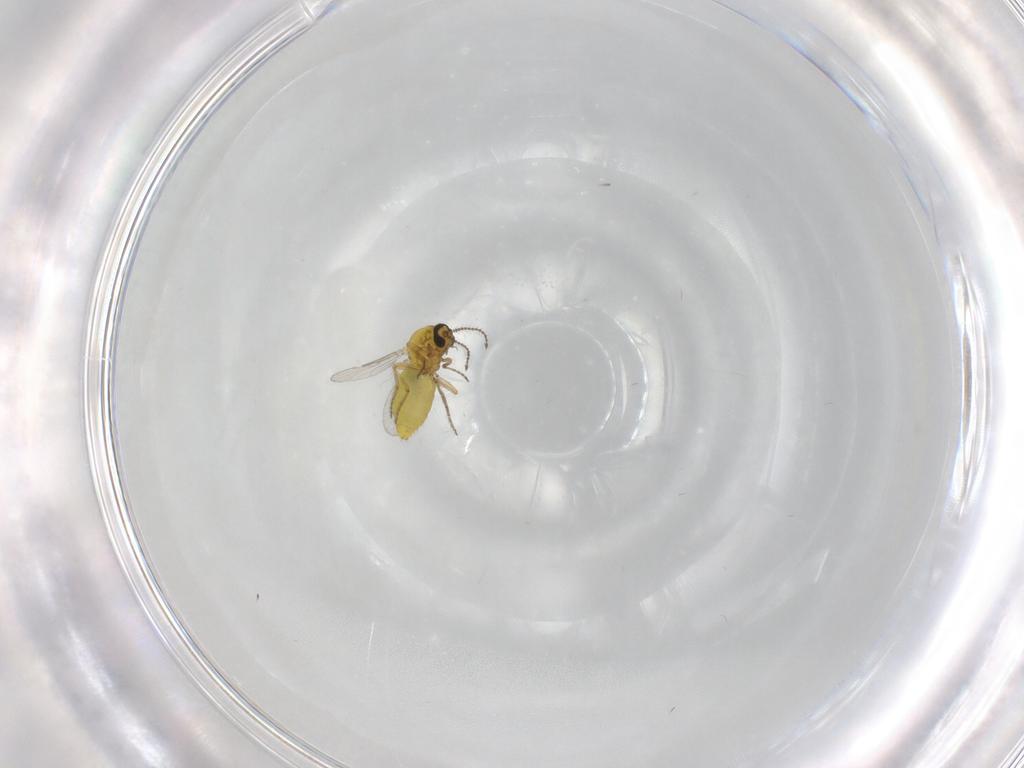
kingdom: Animalia
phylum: Arthropoda
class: Insecta
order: Diptera
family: Ceratopogonidae
